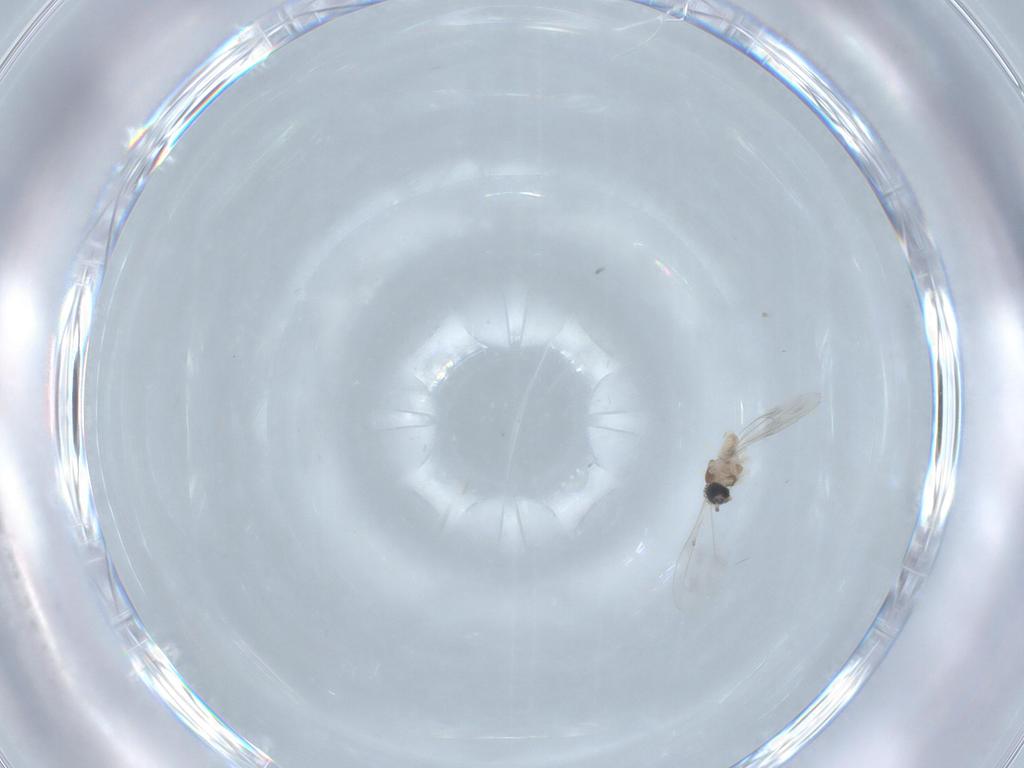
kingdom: Animalia
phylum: Arthropoda
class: Insecta
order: Diptera
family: Cecidomyiidae
